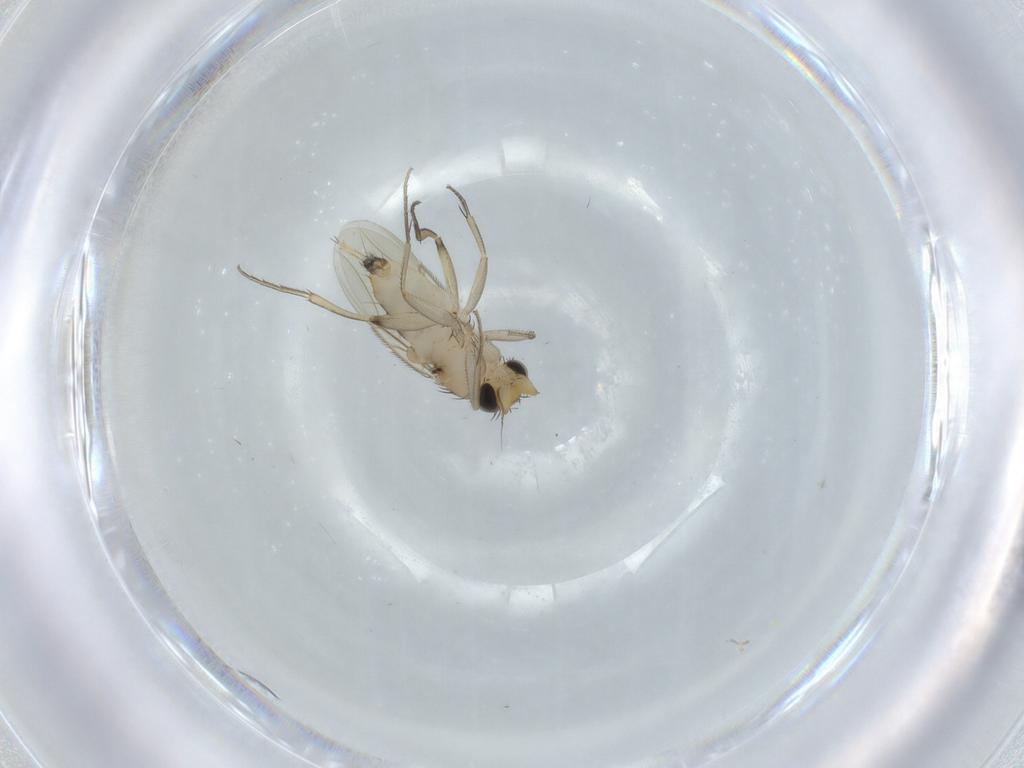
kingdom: Animalia
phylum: Arthropoda
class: Insecta
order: Diptera
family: Phoridae
